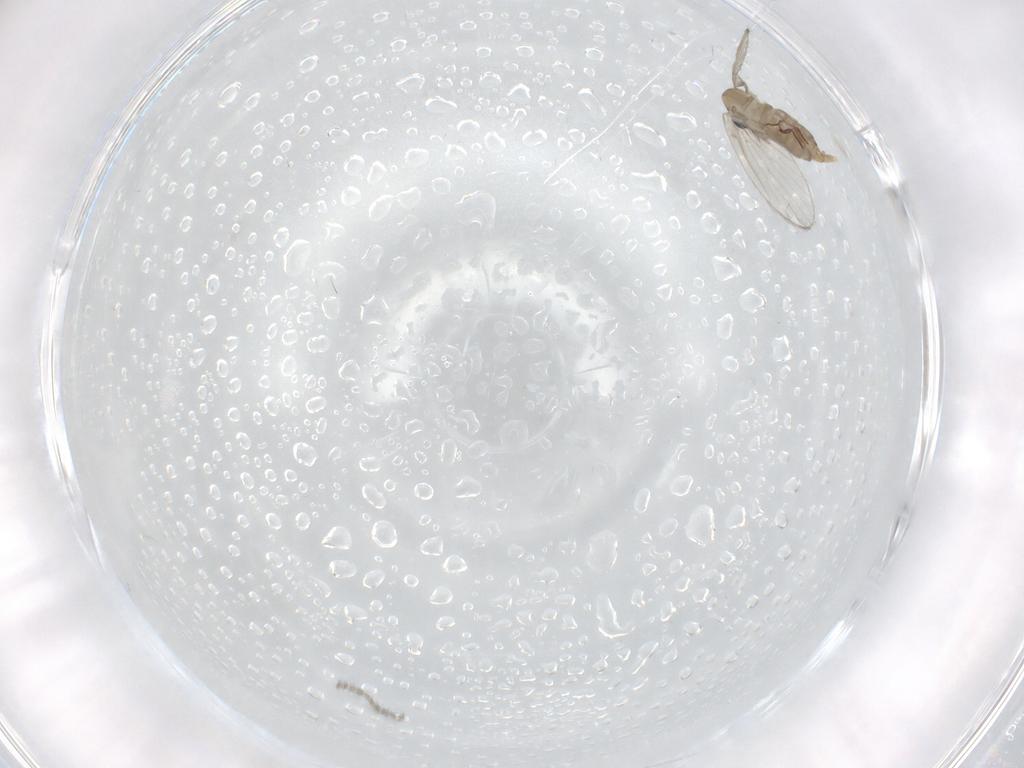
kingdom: Animalia
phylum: Arthropoda
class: Insecta
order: Diptera
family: Psychodidae
